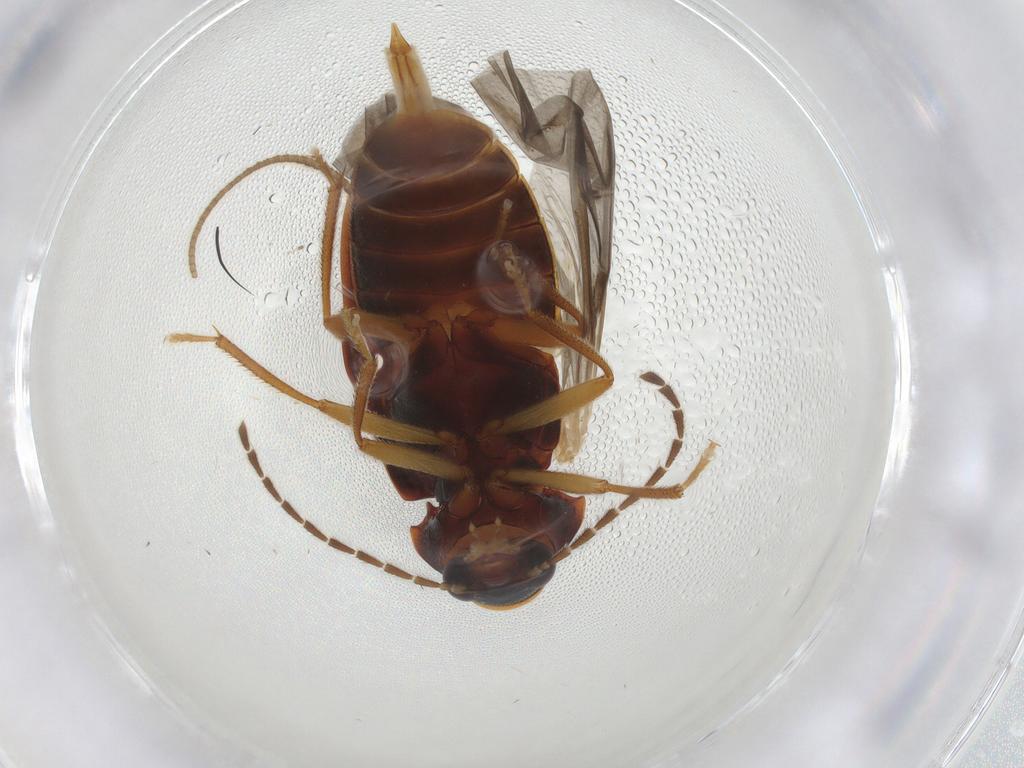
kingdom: Animalia
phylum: Arthropoda
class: Insecta
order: Coleoptera
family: Ptilodactylidae
